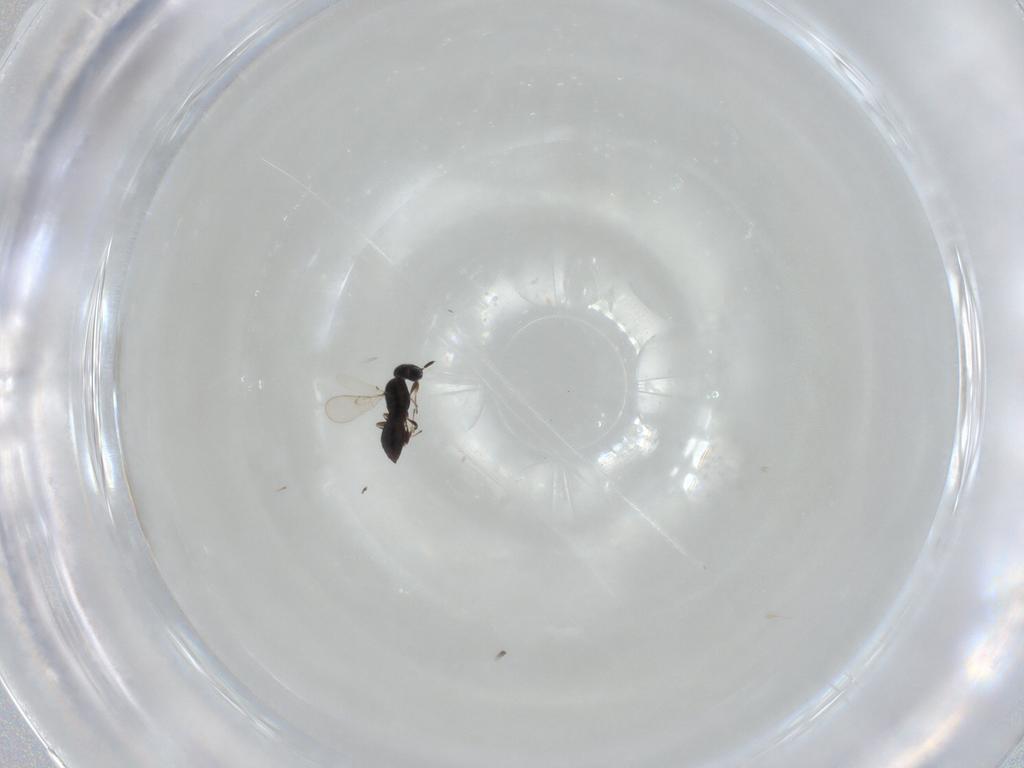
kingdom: Animalia
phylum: Arthropoda
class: Insecta
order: Hymenoptera
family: Scelionidae
